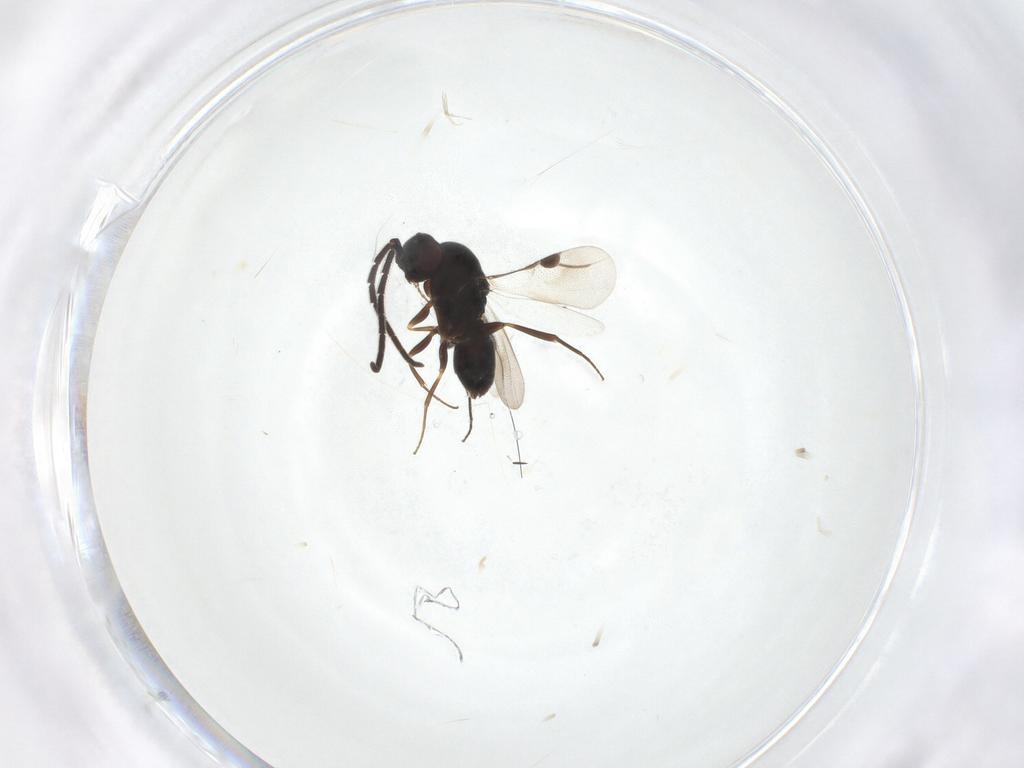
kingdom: Animalia
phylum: Arthropoda
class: Insecta
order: Hymenoptera
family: Megaspilidae
